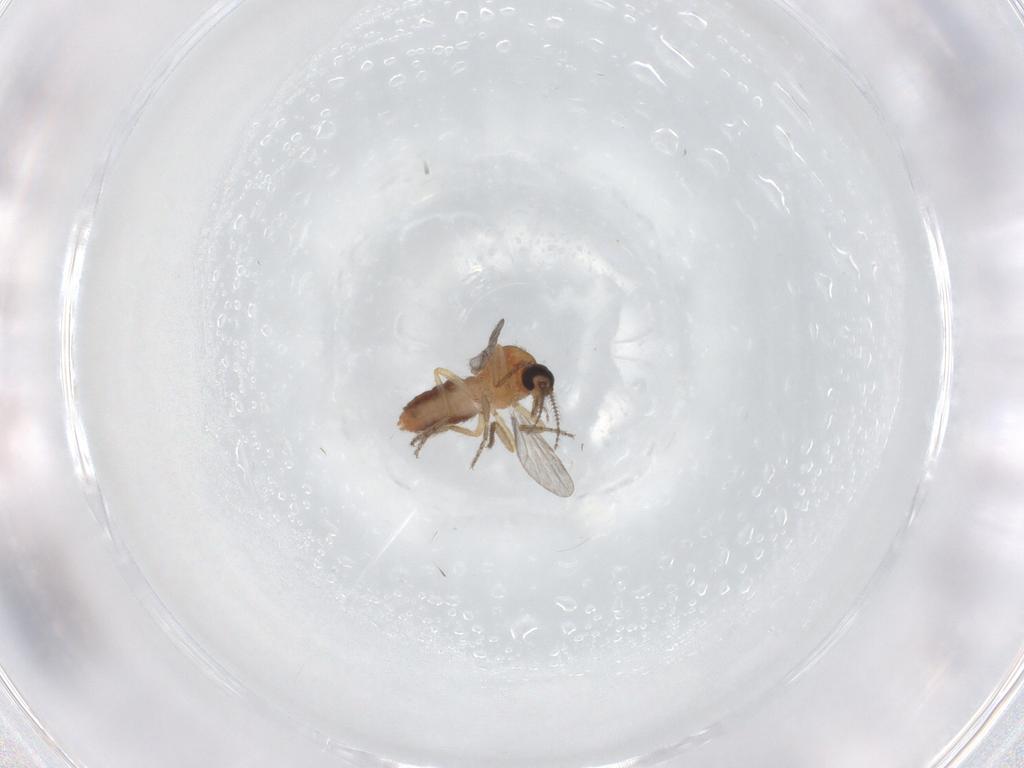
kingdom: Animalia
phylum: Arthropoda
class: Insecta
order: Diptera
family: Ceratopogonidae
